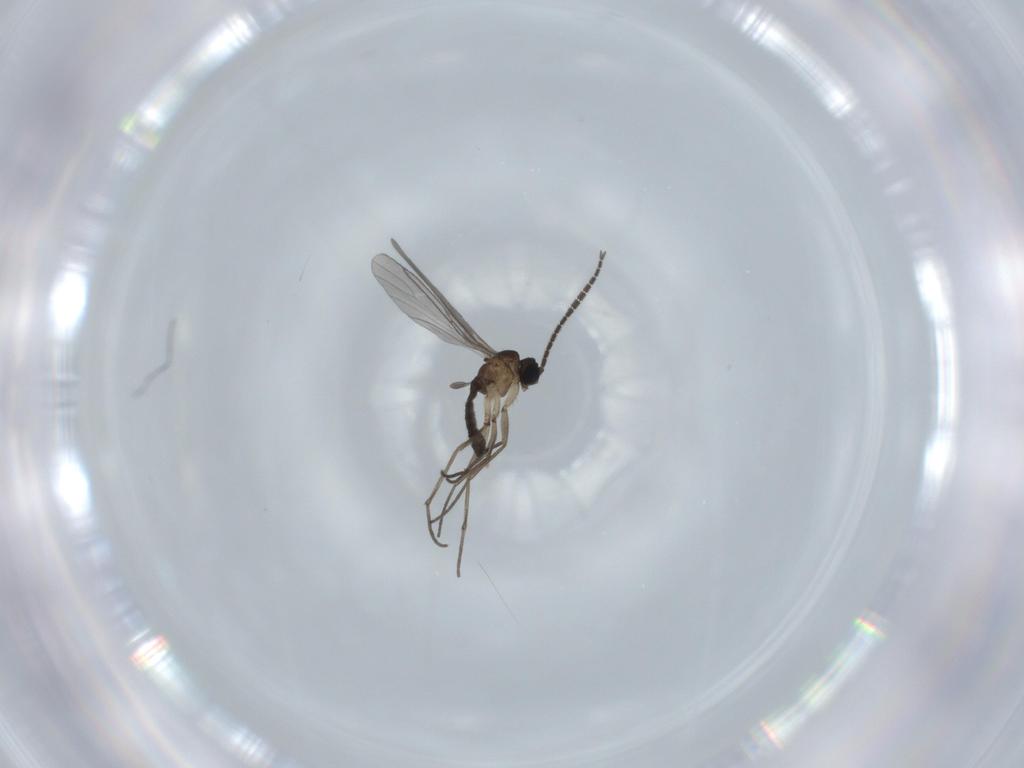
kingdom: Animalia
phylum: Arthropoda
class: Insecta
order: Diptera
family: Sciaridae
